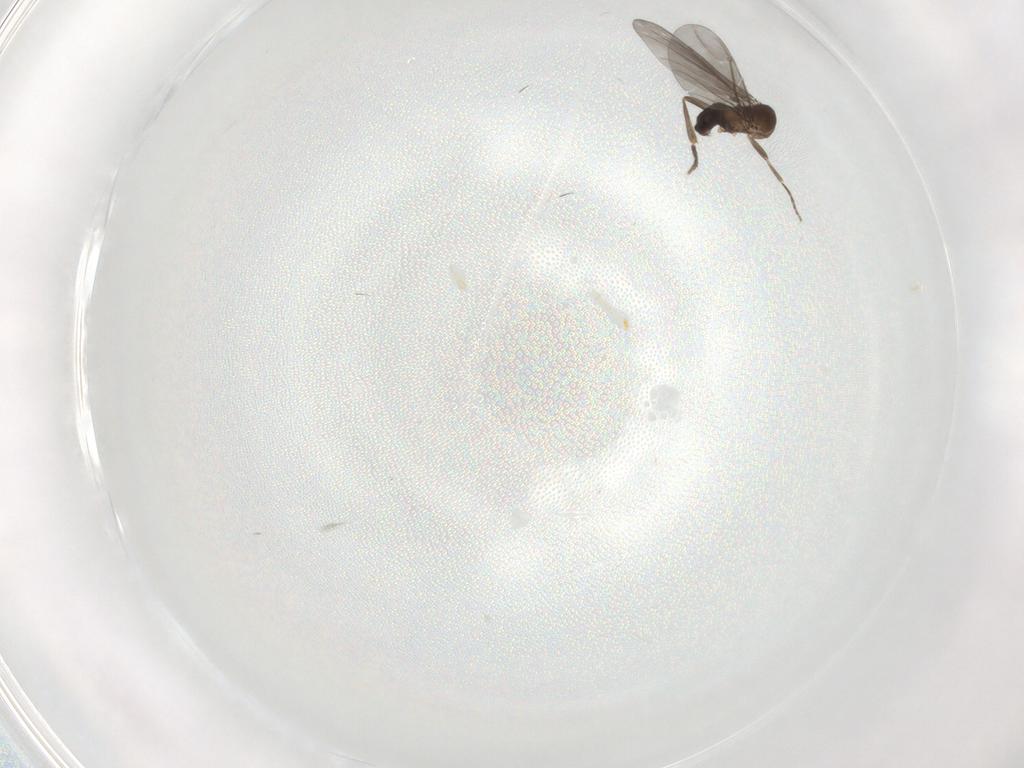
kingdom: Animalia
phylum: Arthropoda
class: Insecta
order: Diptera
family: Phoridae
